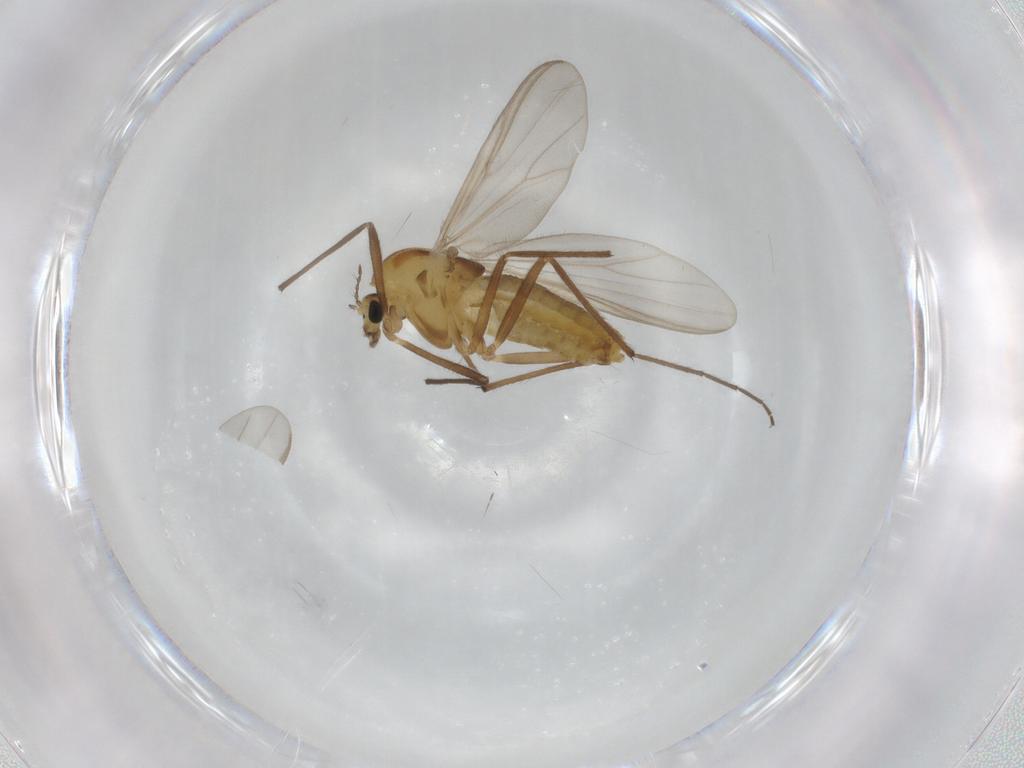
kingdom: Animalia
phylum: Arthropoda
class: Insecta
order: Diptera
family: Chironomidae
